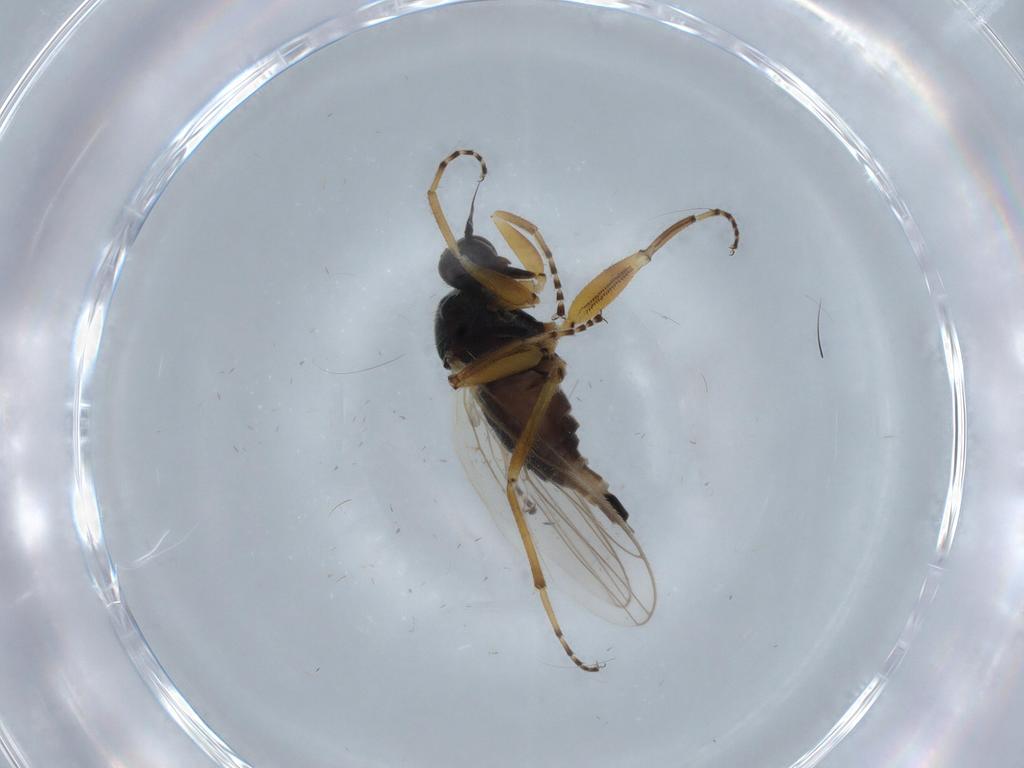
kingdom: Animalia
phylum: Arthropoda
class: Insecta
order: Diptera
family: Hybotidae
